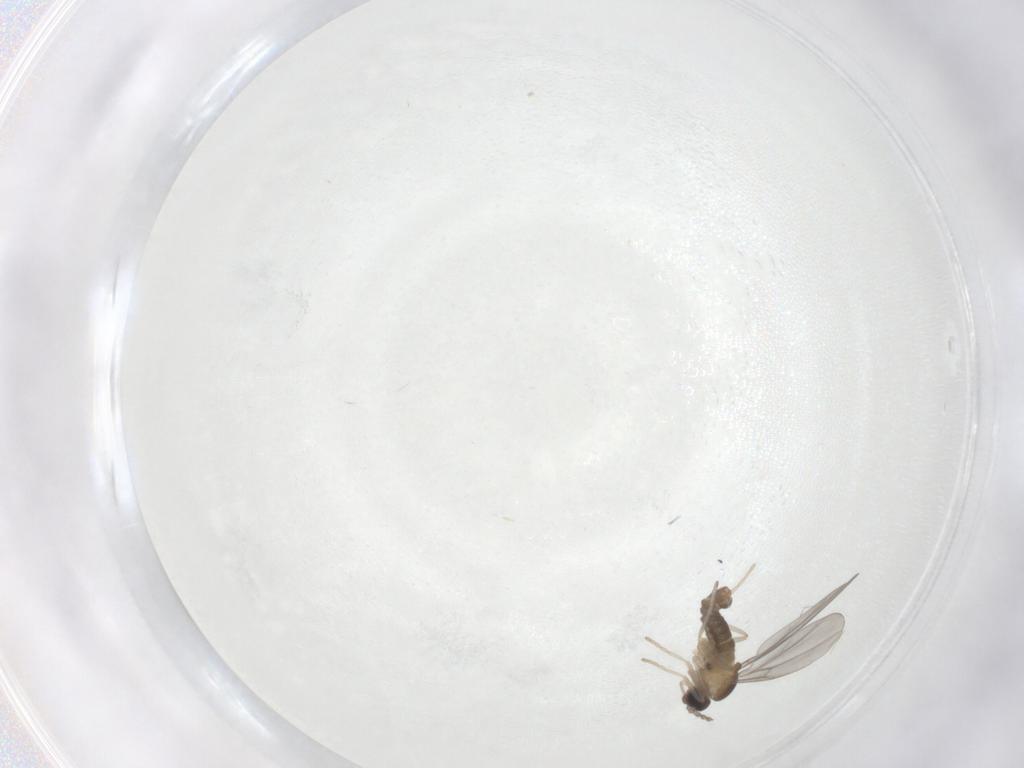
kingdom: Animalia
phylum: Arthropoda
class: Insecta
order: Diptera
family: Cecidomyiidae
